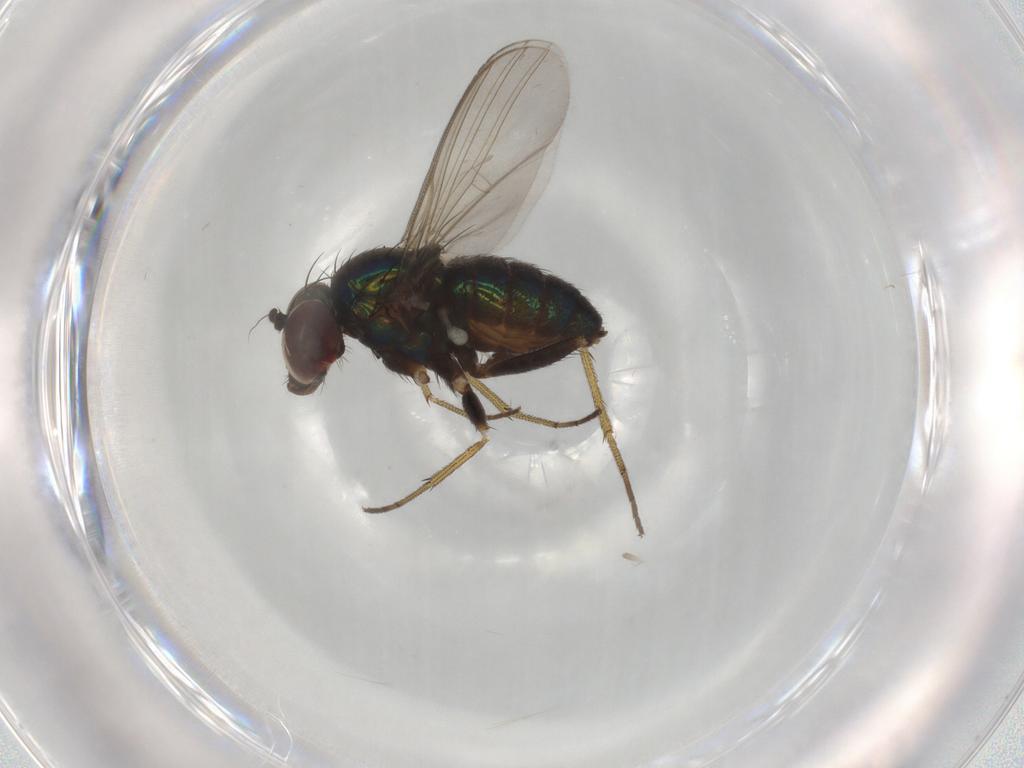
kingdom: Animalia
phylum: Arthropoda
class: Insecta
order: Diptera
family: Dolichopodidae
